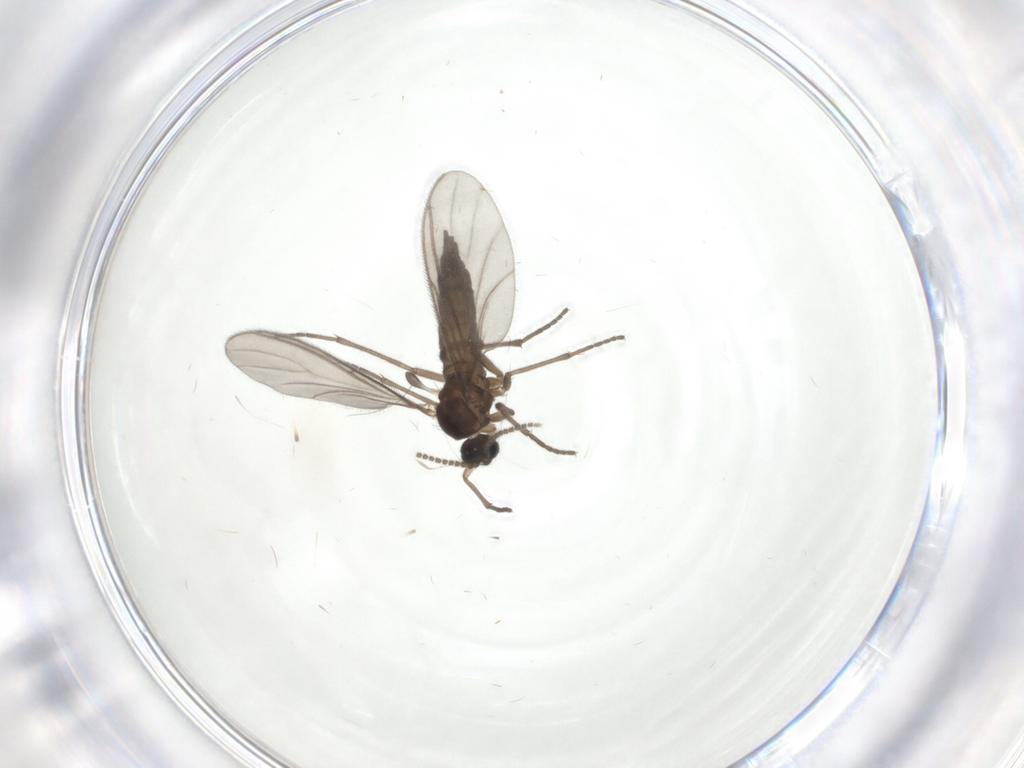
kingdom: Animalia
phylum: Arthropoda
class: Insecta
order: Diptera
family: Sciaridae
